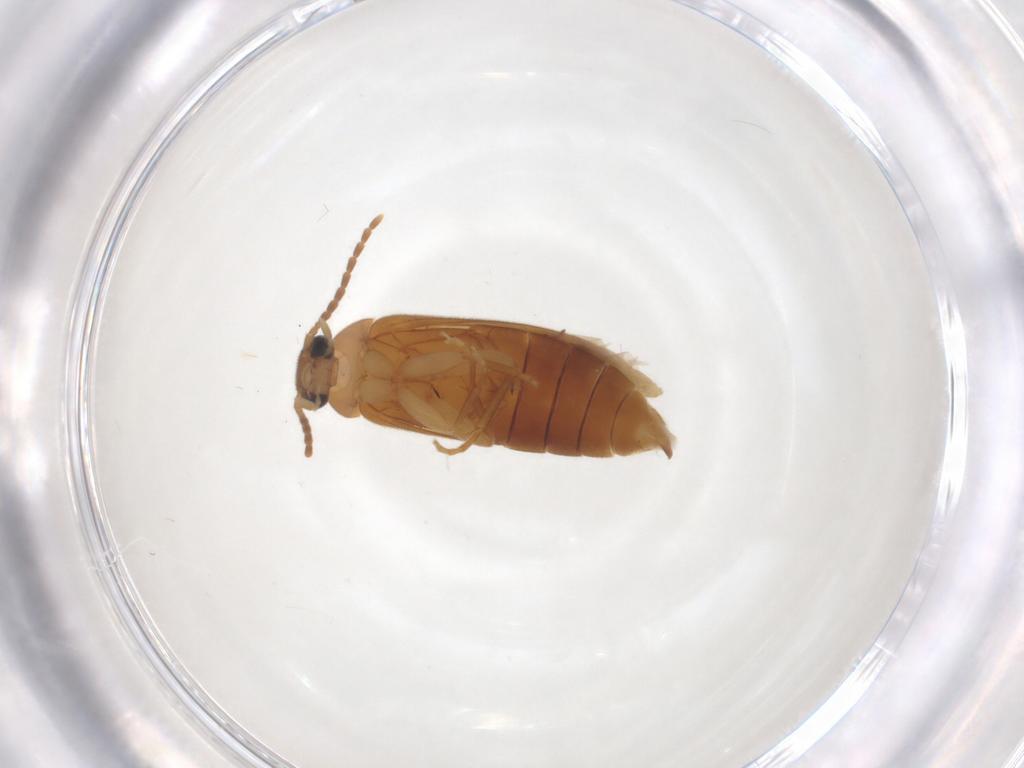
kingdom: Animalia
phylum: Arthropoda
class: Insecta
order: Coleoptera
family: Scraptiidae
